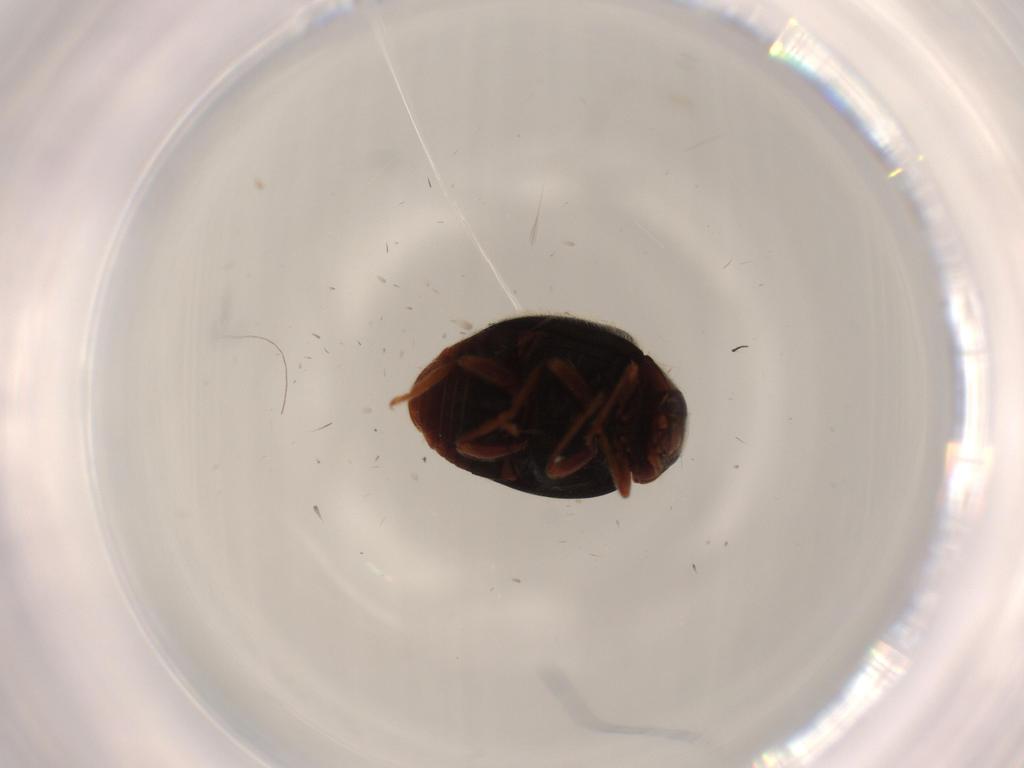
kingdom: Animalia
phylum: Arthropoda
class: Insecta
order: Coleoptera
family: Coccinellidae
